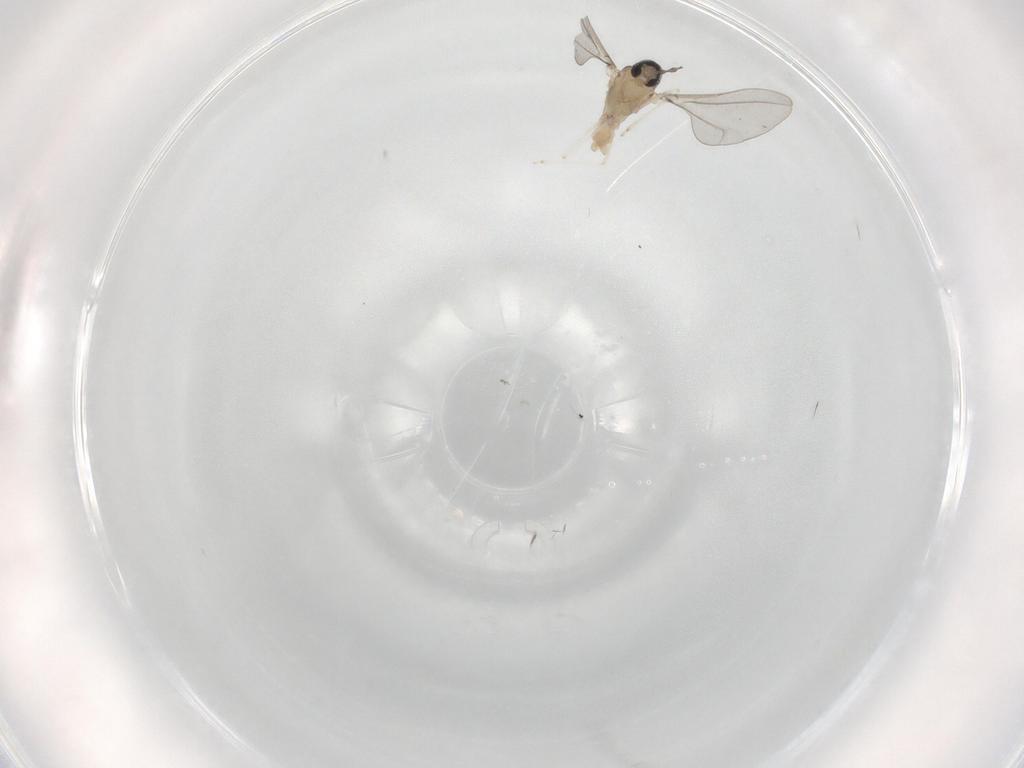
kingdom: Animalia
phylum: Arthropoda
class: Insecta
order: Diptera
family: Cecidomyiidae
